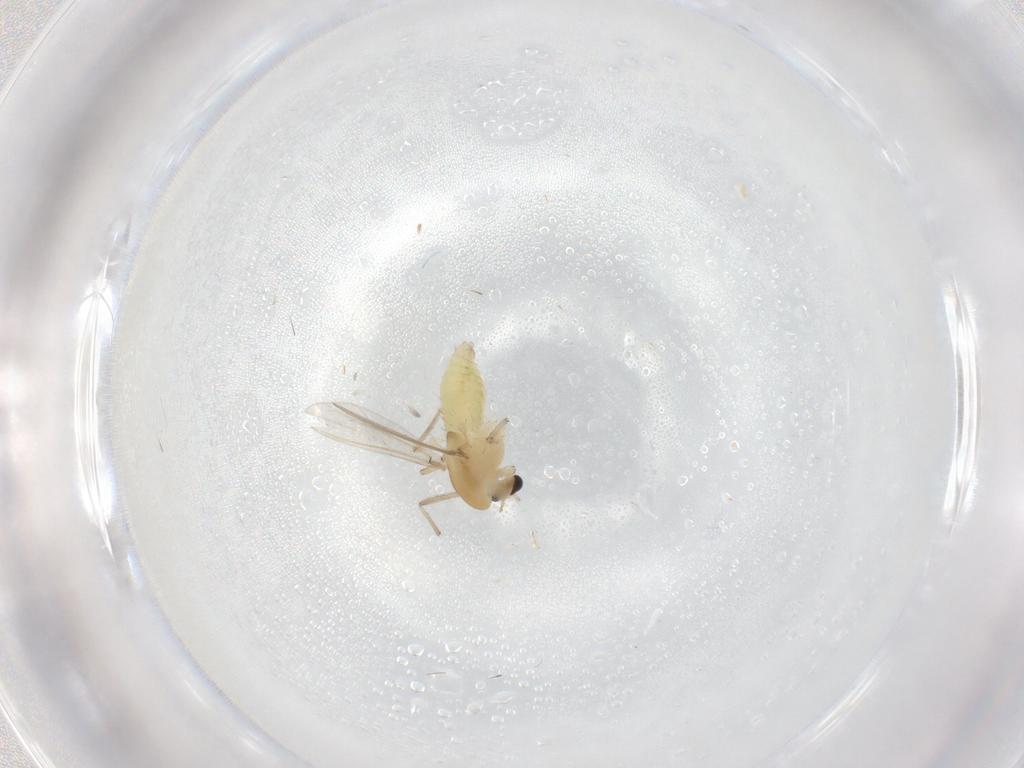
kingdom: Animalia
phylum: Arthropoda
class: Insecta
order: Diptera
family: Chironomidae
